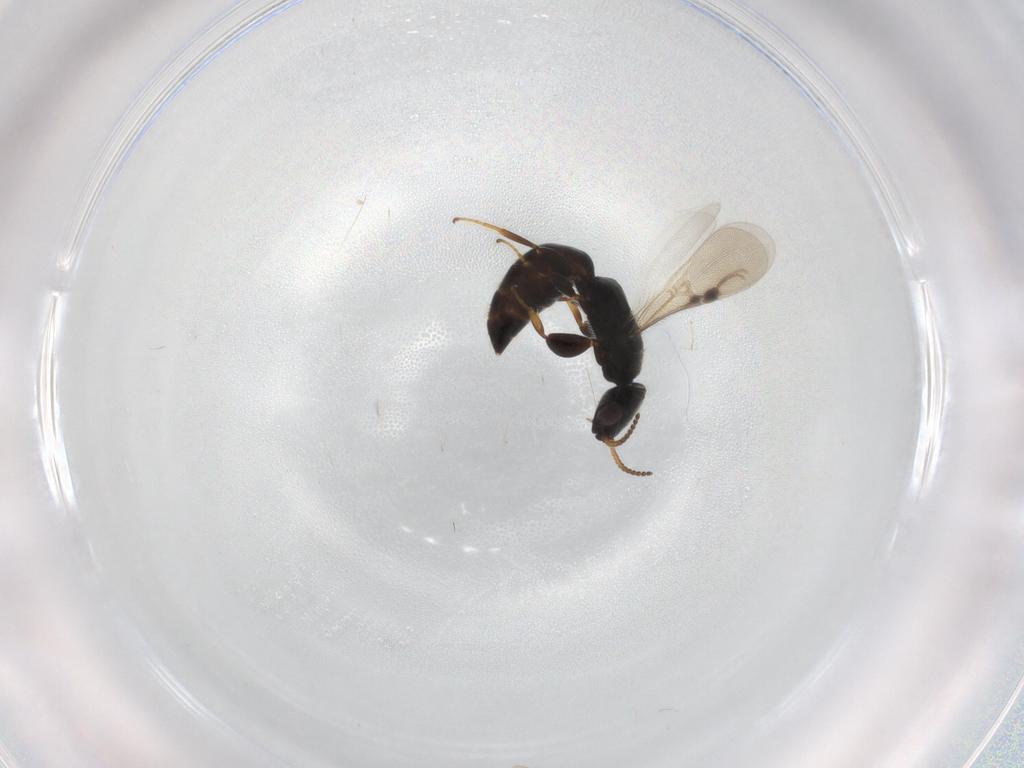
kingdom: Animalia
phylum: Arthropoda
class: Insecta
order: Hymenoptera
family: Bethylidae
